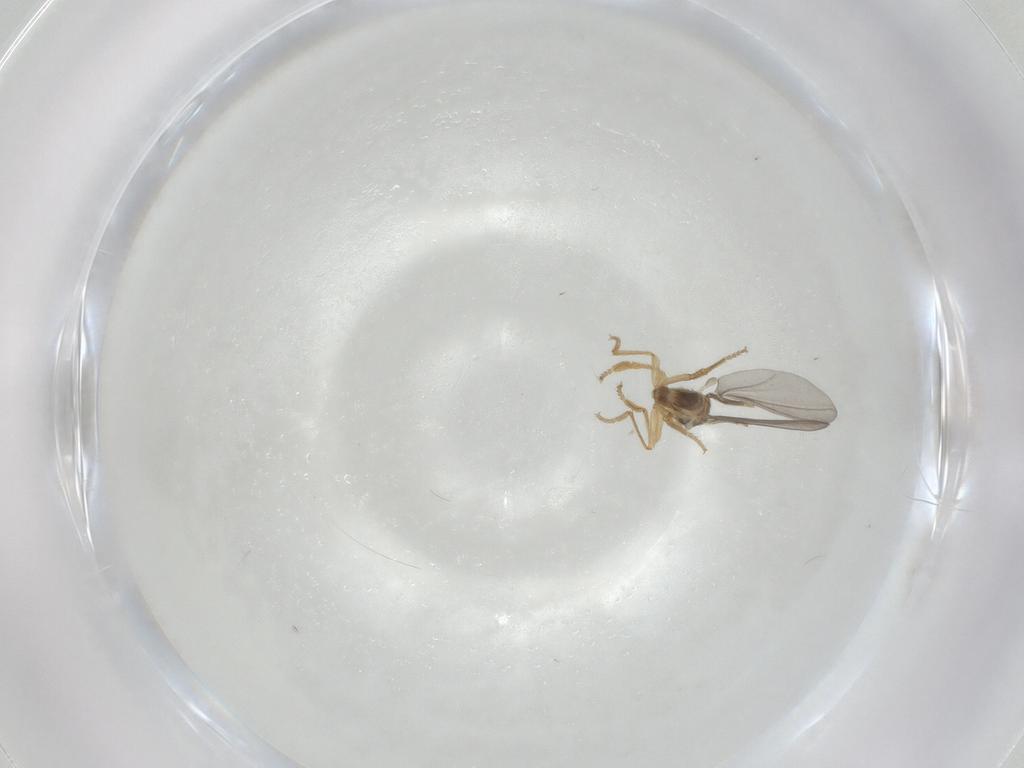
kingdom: Animalia
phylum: Arthropoda
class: Insecta
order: Diptera
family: Phoridae
